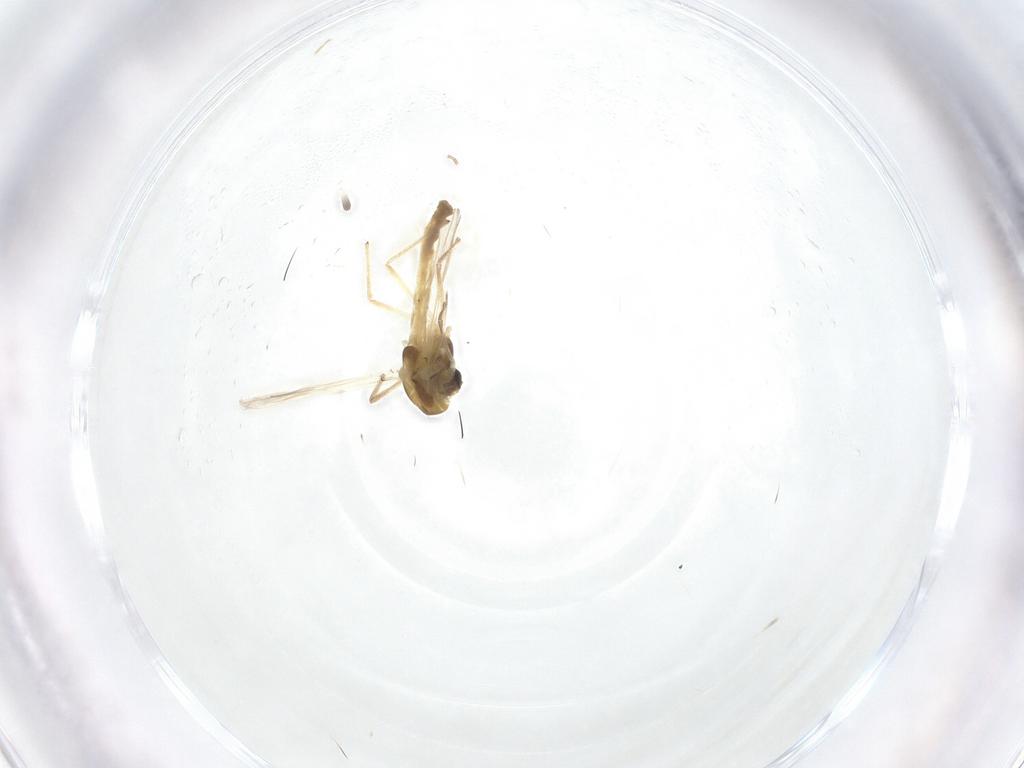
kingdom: Animalia
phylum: Arthropoda
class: Insecta
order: Diptera
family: Chironomidae
